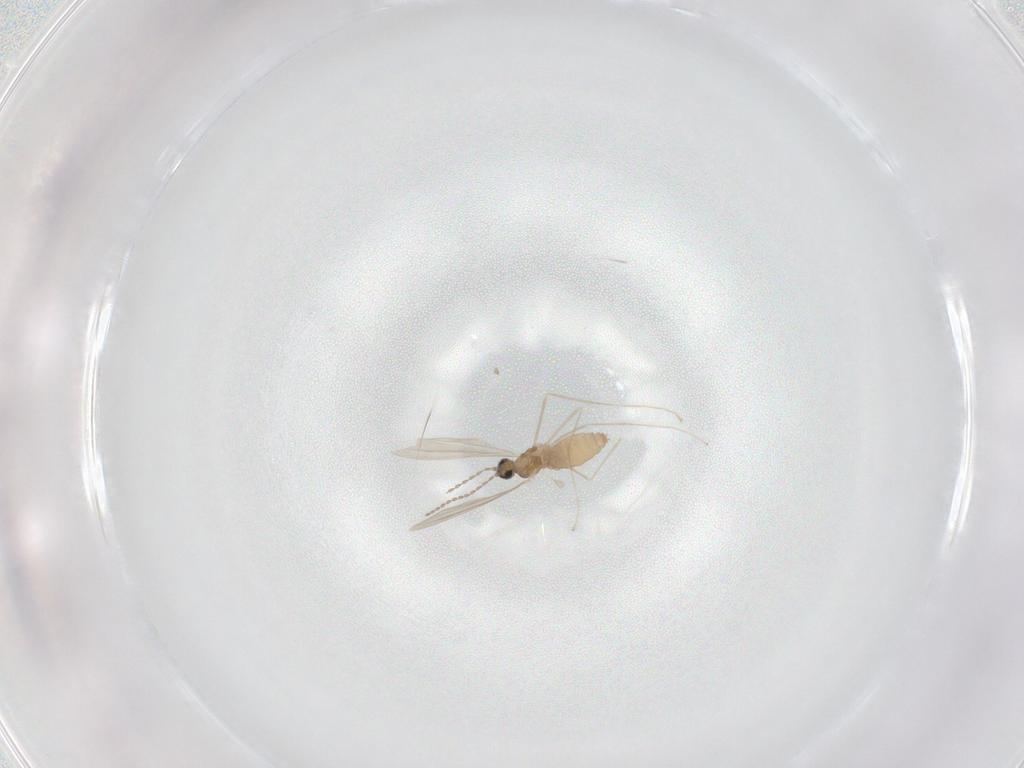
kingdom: Animalia
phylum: Arthropoda
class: Insecta
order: Diptera
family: Cecidomyiidae
